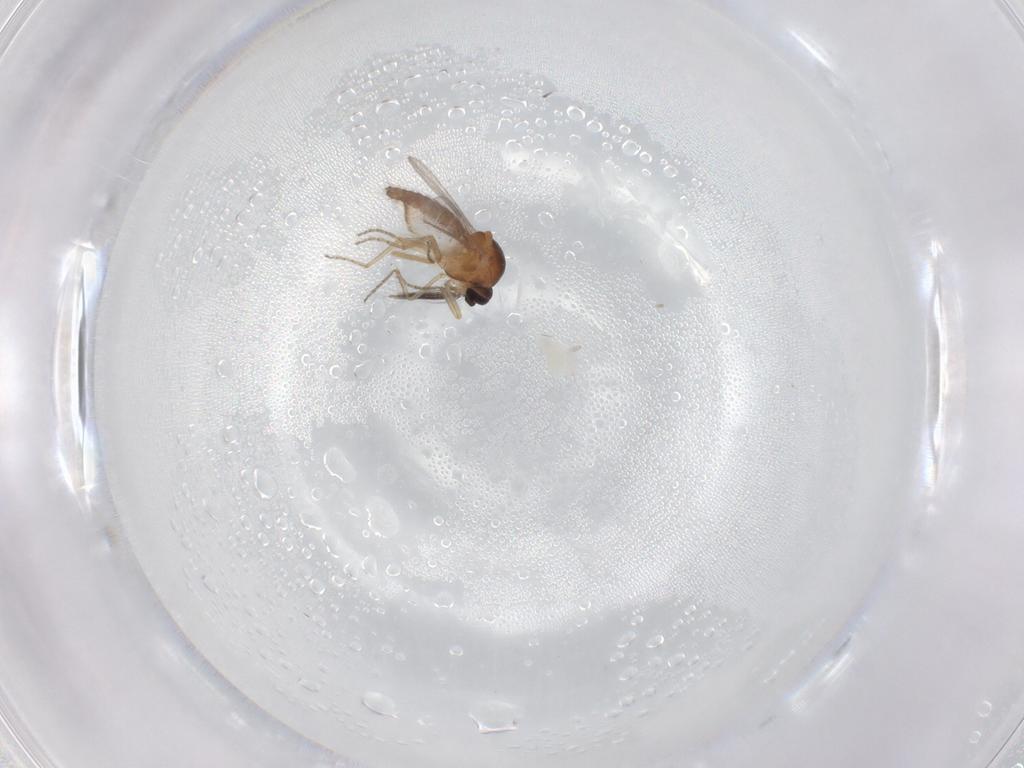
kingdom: Animalia
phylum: Arthropoda
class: Insecta
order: Diptera
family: Ceratopogonidae
